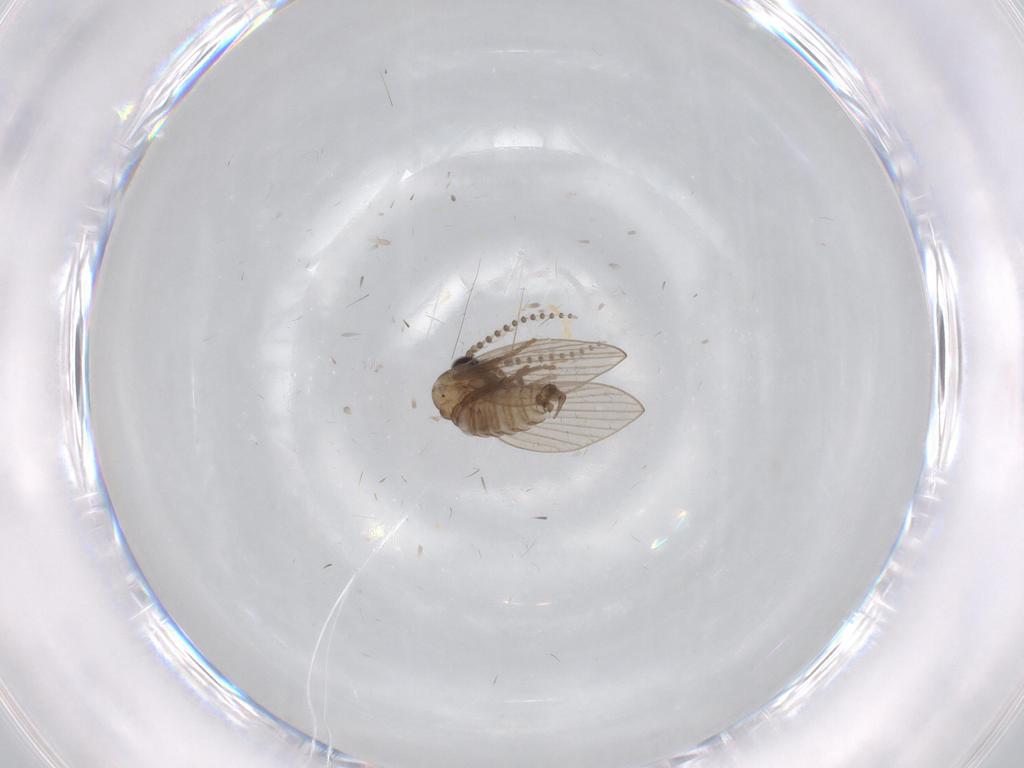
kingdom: Animalia
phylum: Arthropoda
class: Insecta
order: Diptera
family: Psychodidae
